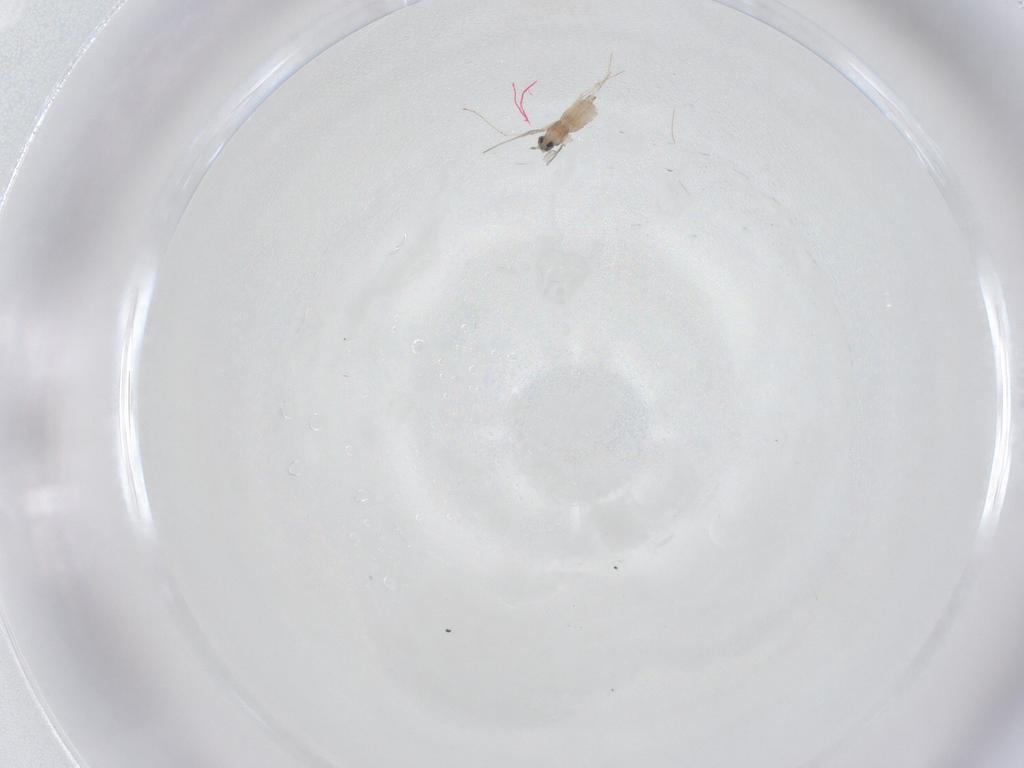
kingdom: Animalia
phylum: Arthropoda
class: Insecta
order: Diptera
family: Cecidomyiidae
